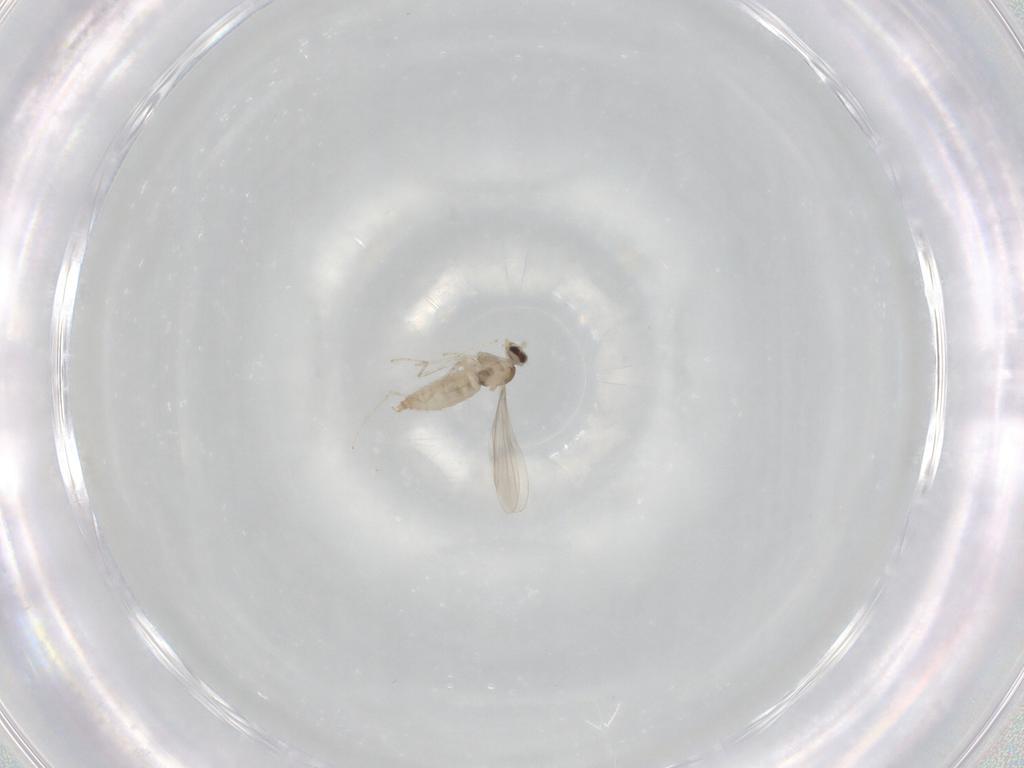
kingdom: Animalia
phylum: Arthropoda
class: Insecta
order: Diptera
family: Cecidomyiidae
